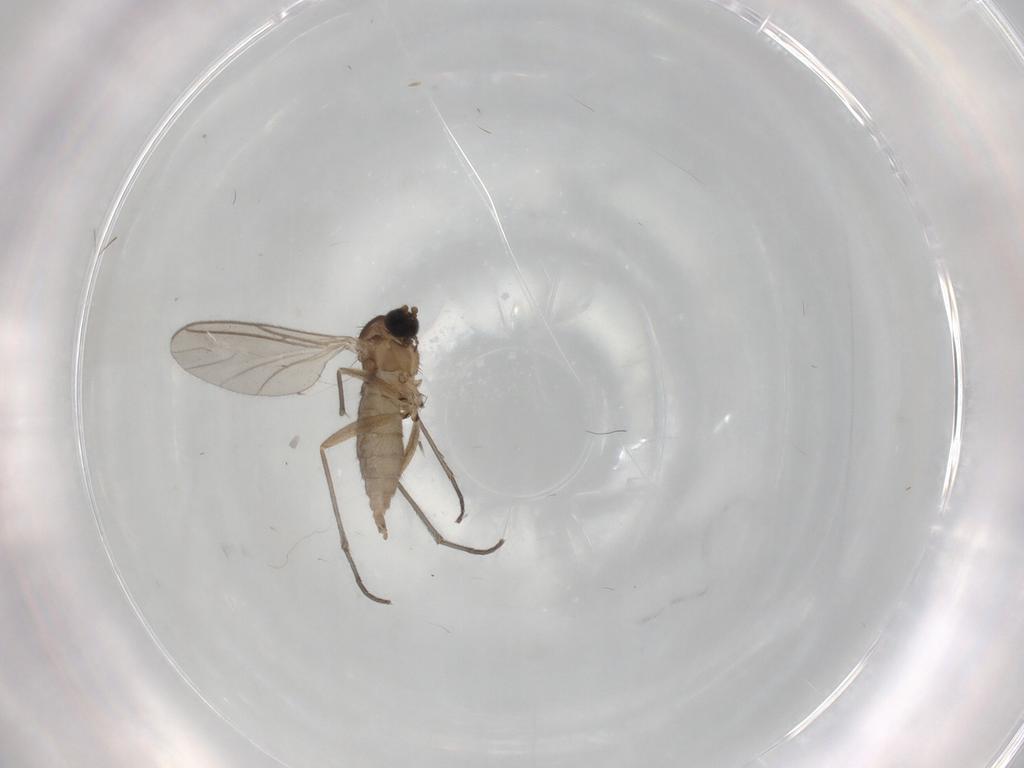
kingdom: Animalia
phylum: Arthropoda
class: Insecta
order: Diptera
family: Sciaridae
